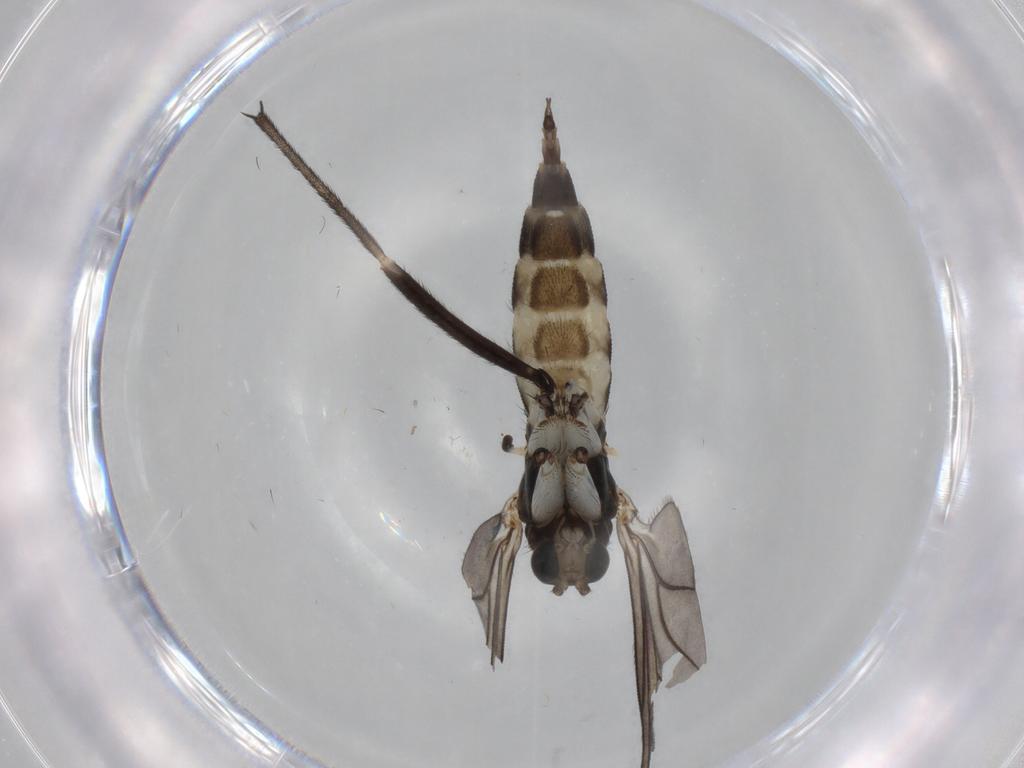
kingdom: Animalia
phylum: Arthropoda
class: Insecta
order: Diptera
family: Sciaridae
